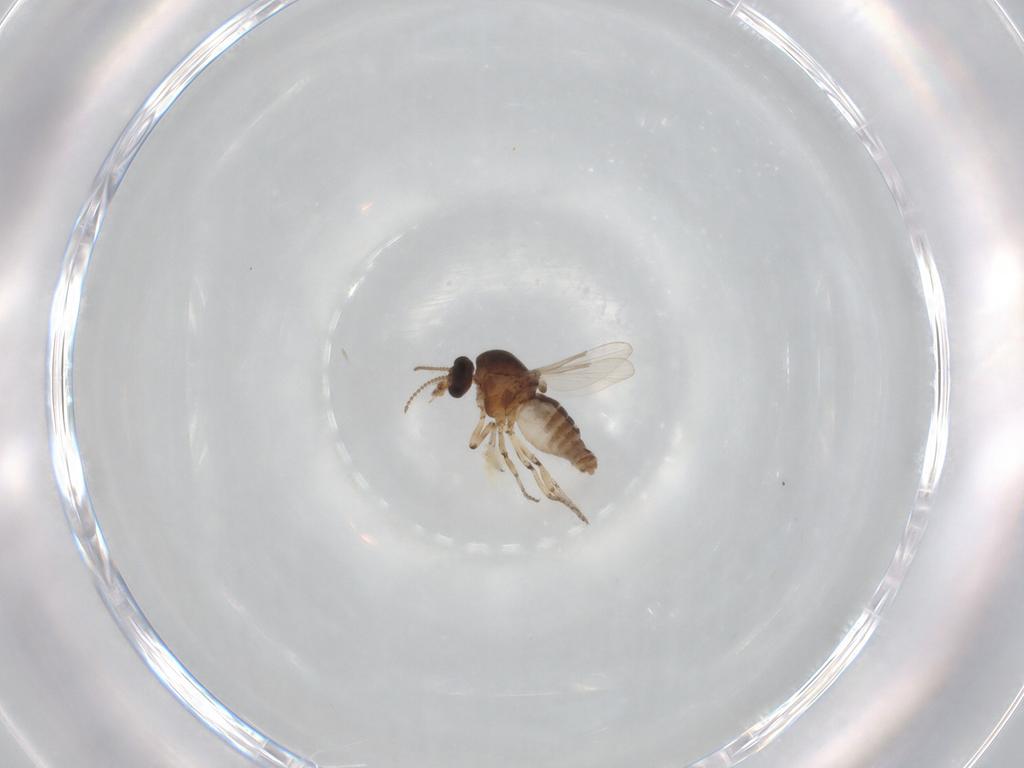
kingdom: Animalia
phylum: Arthropoda
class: Insecta
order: Diptera
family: Ceratopogonidae
